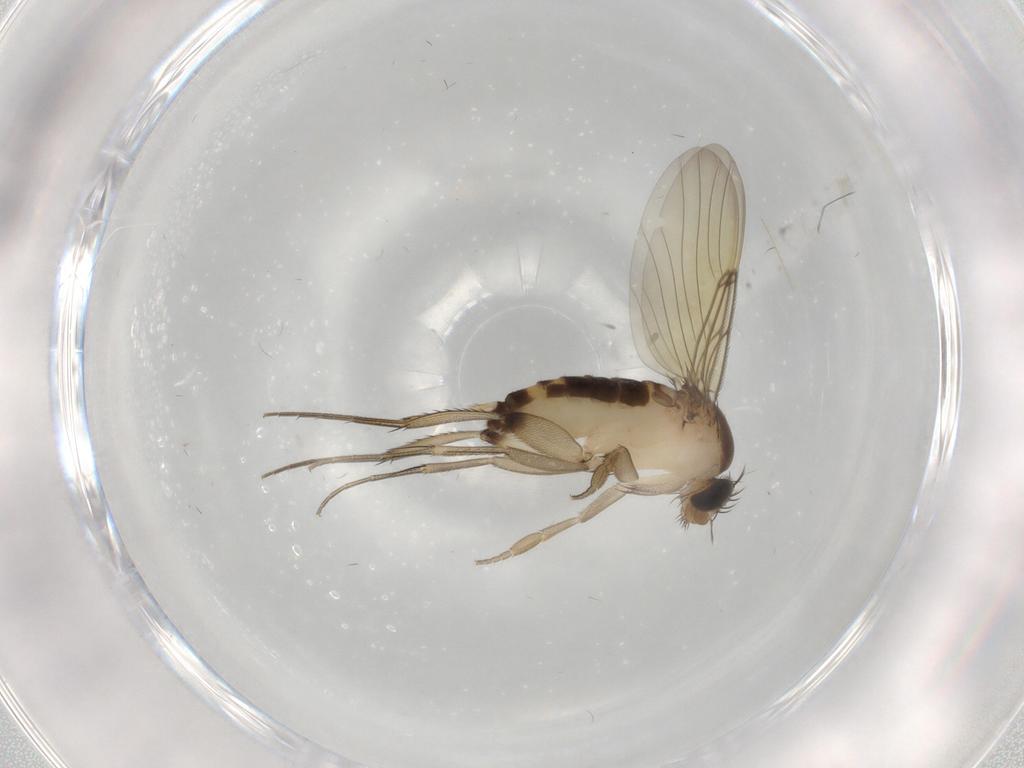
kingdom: Animalia
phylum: Arthropoda
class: Insecta
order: Diptera
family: Phoridae
